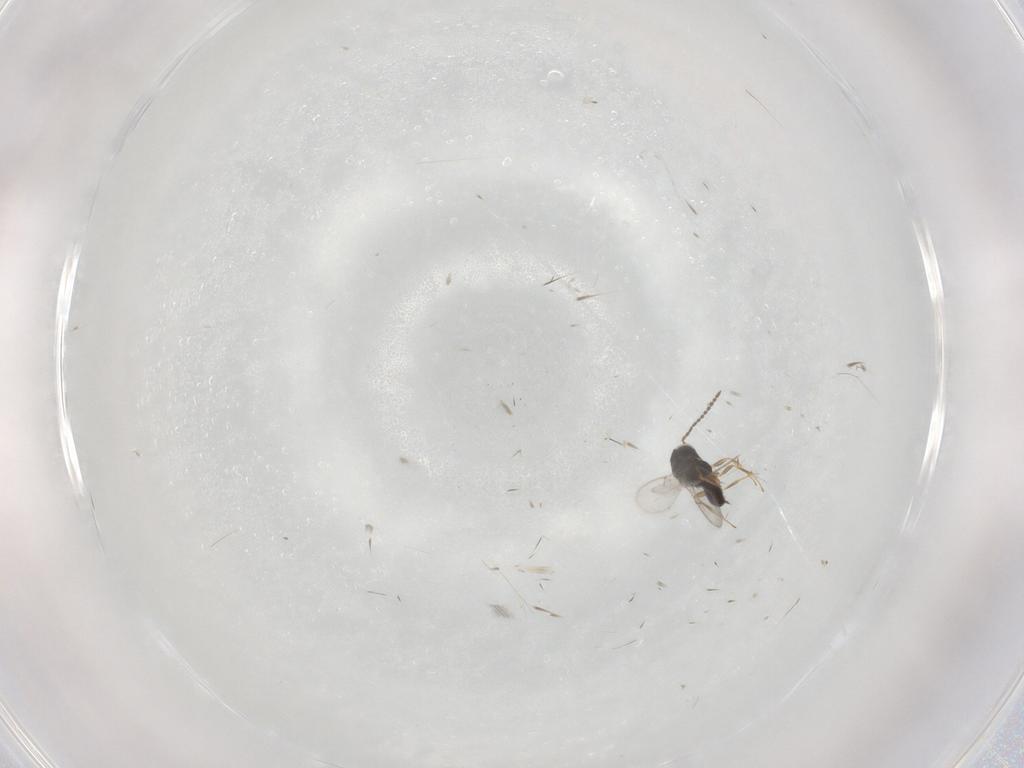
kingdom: Animalia
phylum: Arthropoda
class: Insecta
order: Hymenoptera
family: Scelionidae
